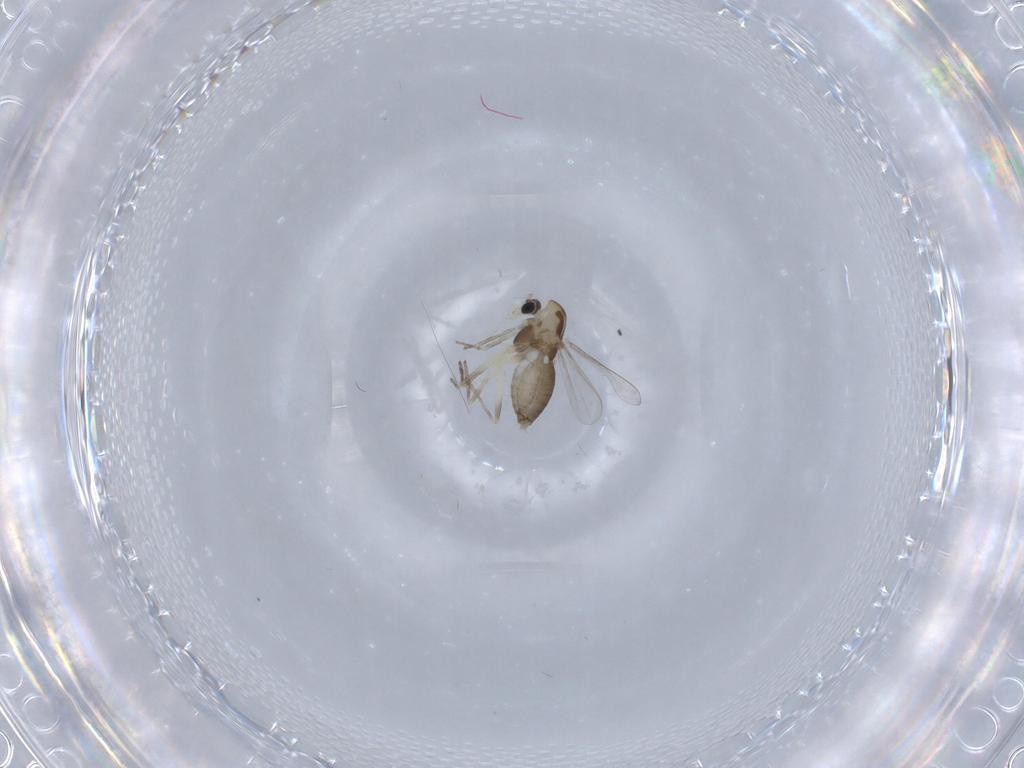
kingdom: Animalia
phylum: Arthropoda
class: Insecta
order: Diptera
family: Chironomidae
